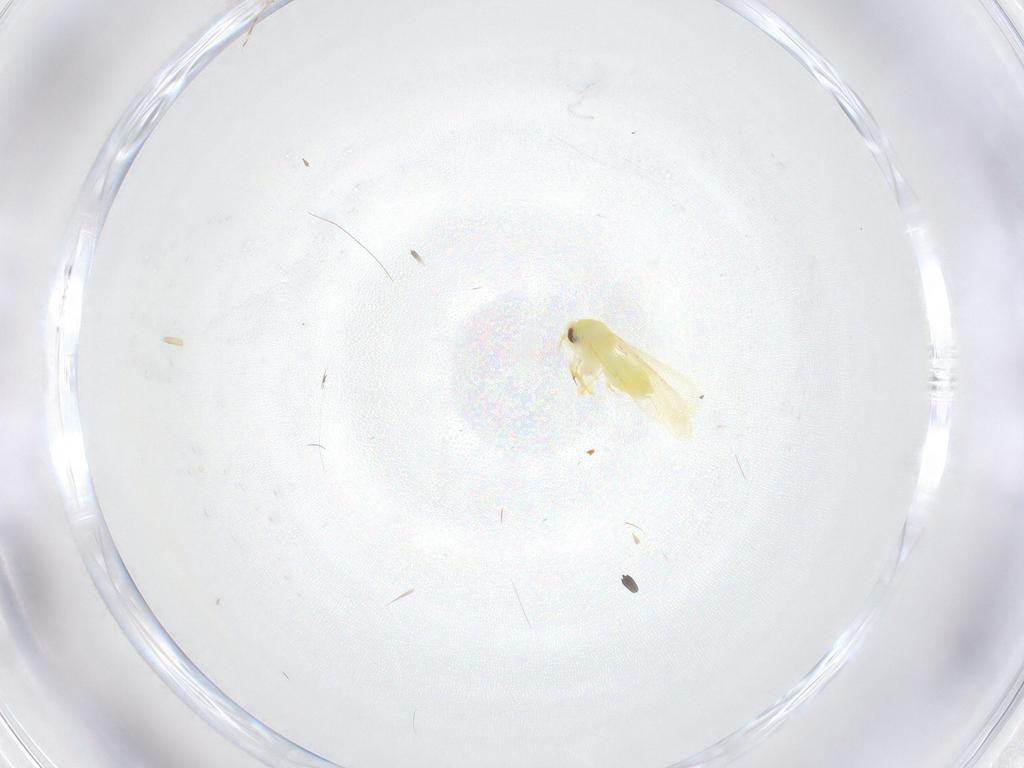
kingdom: Animalia
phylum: Arthropoda
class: Insecta
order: Hemiptera
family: Aleyrodidae
